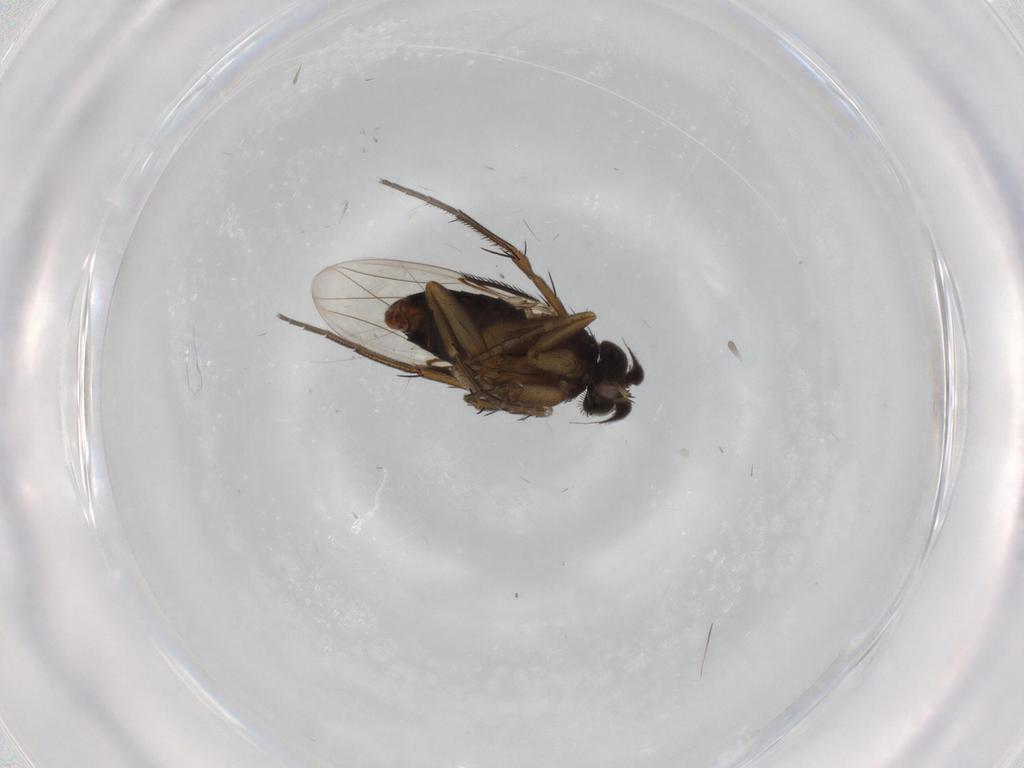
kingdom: Animalia
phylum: Arthropoda
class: Insecta
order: Diptera
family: Phoridae
